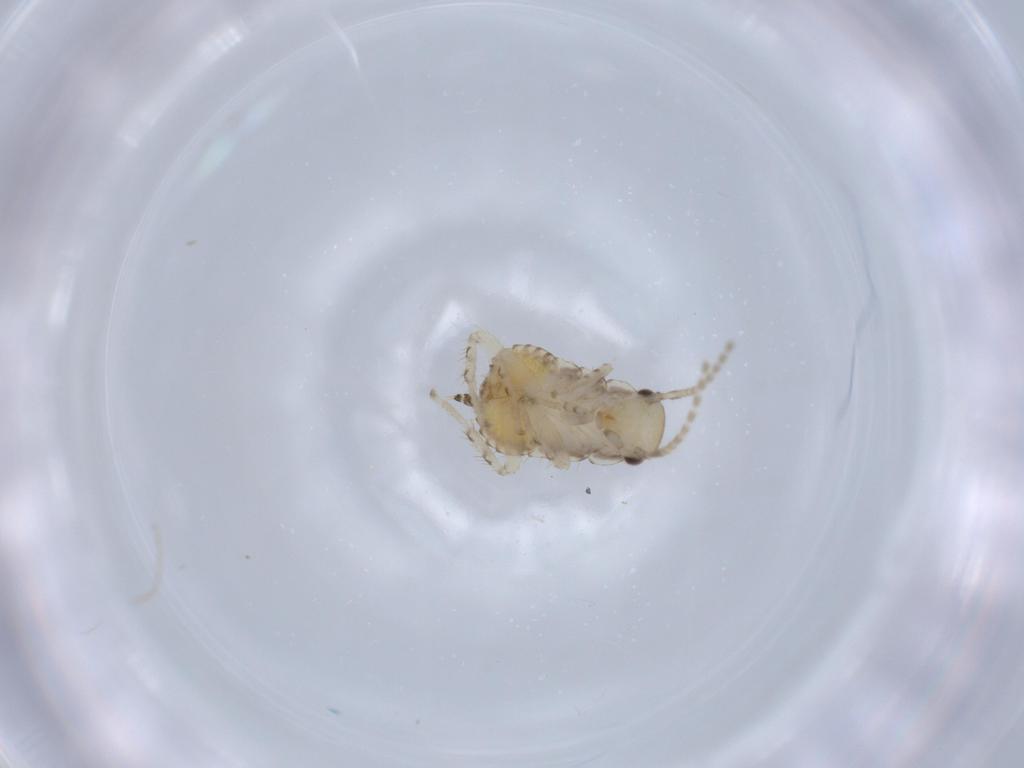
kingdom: Animalia
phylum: Arthropoda
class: Insecta
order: Blattodea
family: Ectobiidae
